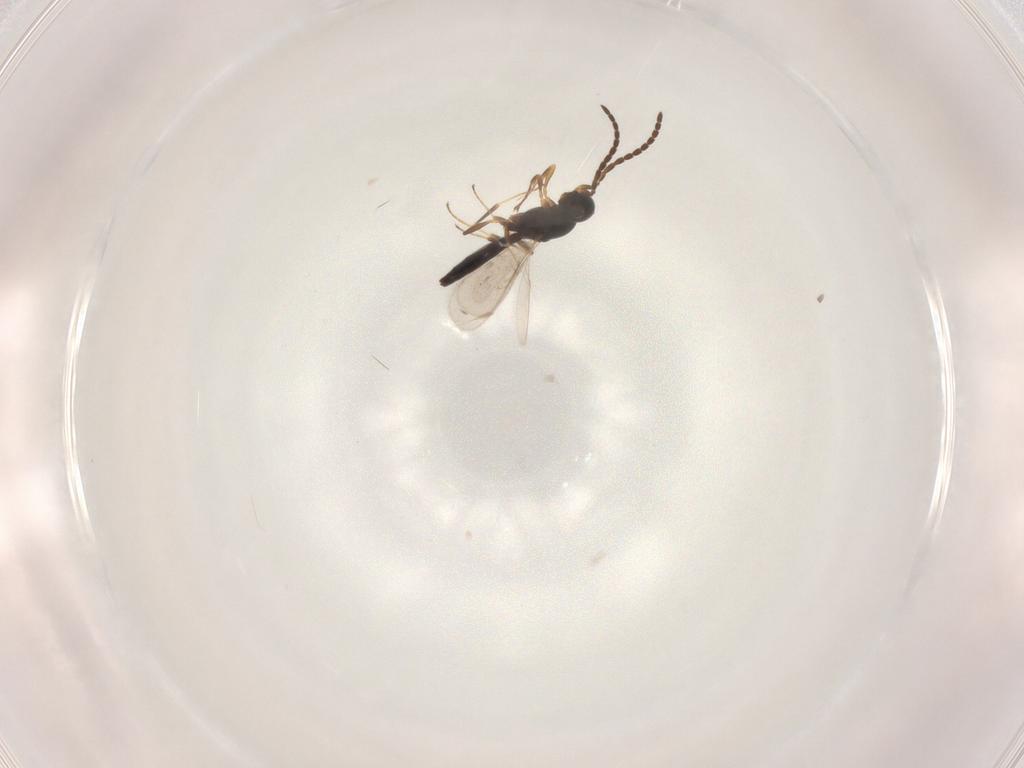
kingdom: Animalia
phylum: Arthropoda
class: Insecta
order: Hymenoptera
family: Scelionidae
